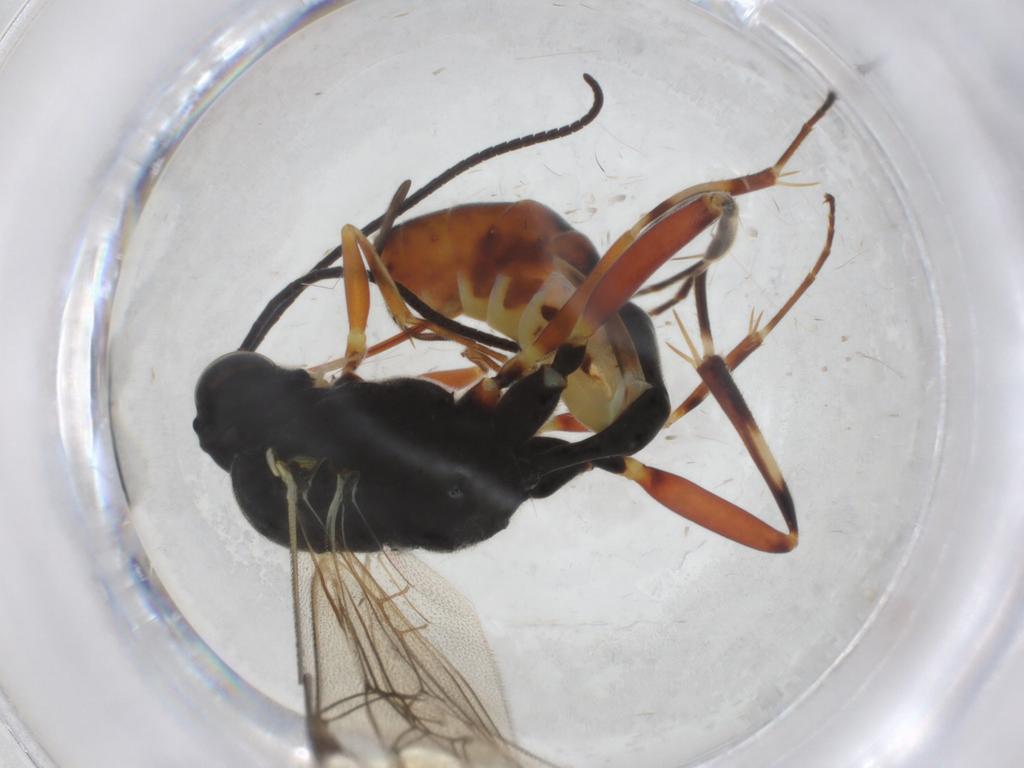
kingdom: Animalia
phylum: Arthropoda
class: Insecta
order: Hymenoptera
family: Ichneumonidae
